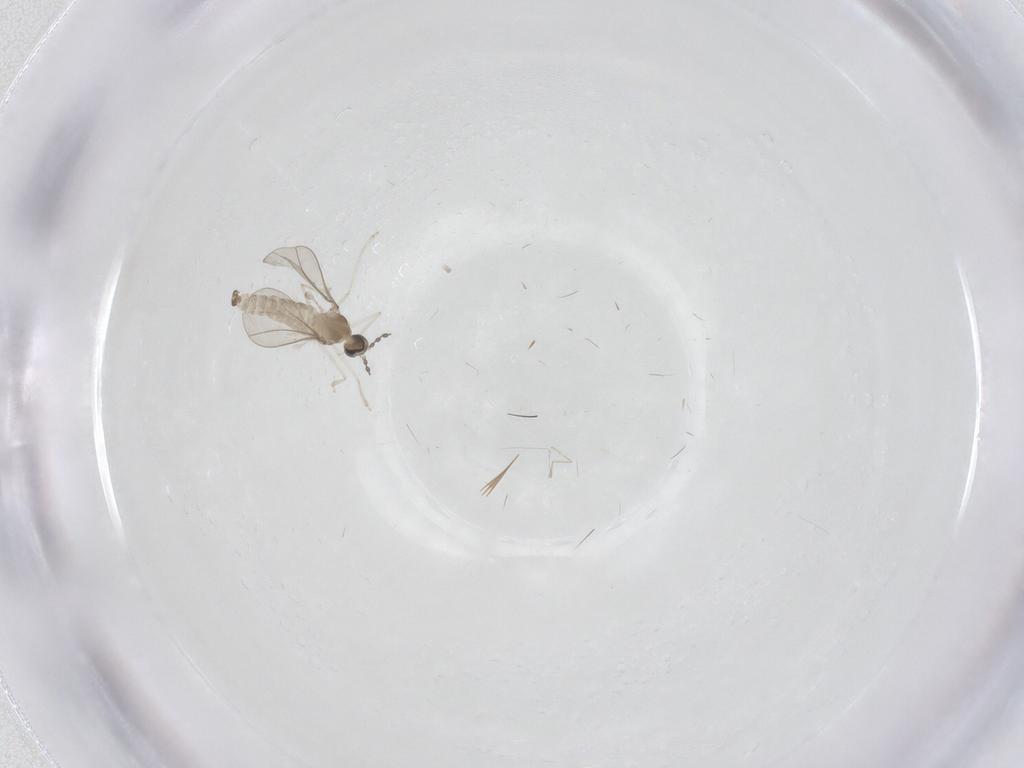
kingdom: Animalia
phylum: Arthropoda
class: Insecta
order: Diptera
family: Cecidomyiidae
